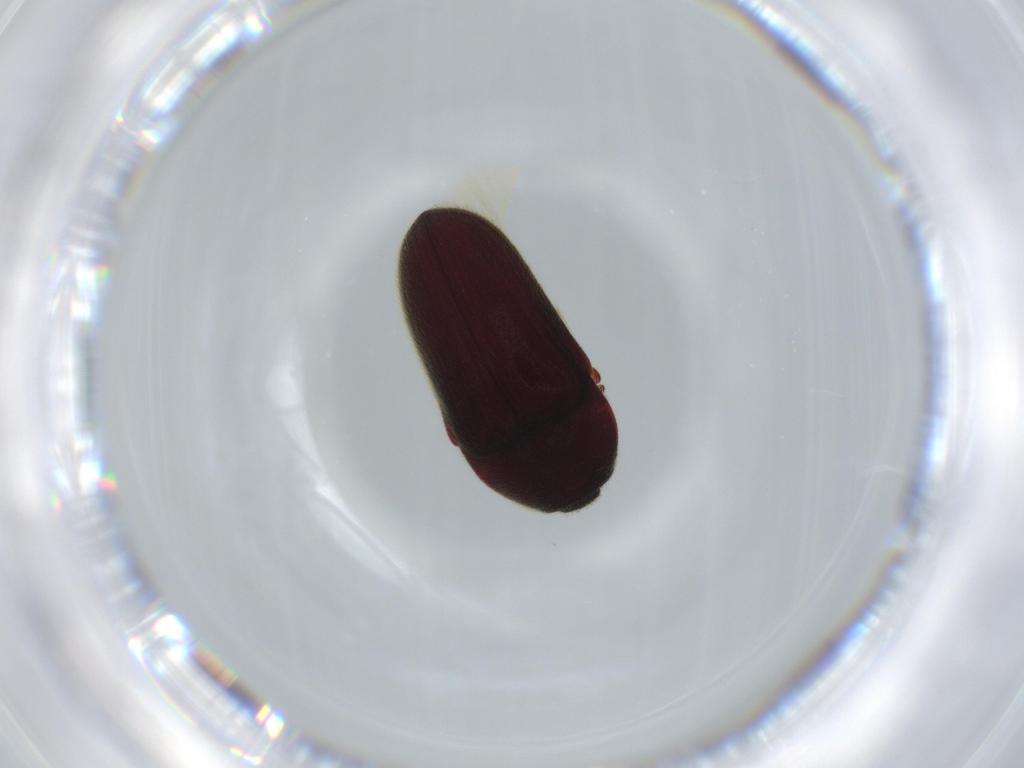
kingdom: Animalia
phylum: Arthropoda
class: Insecta
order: Coleoptera
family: Throscidae
